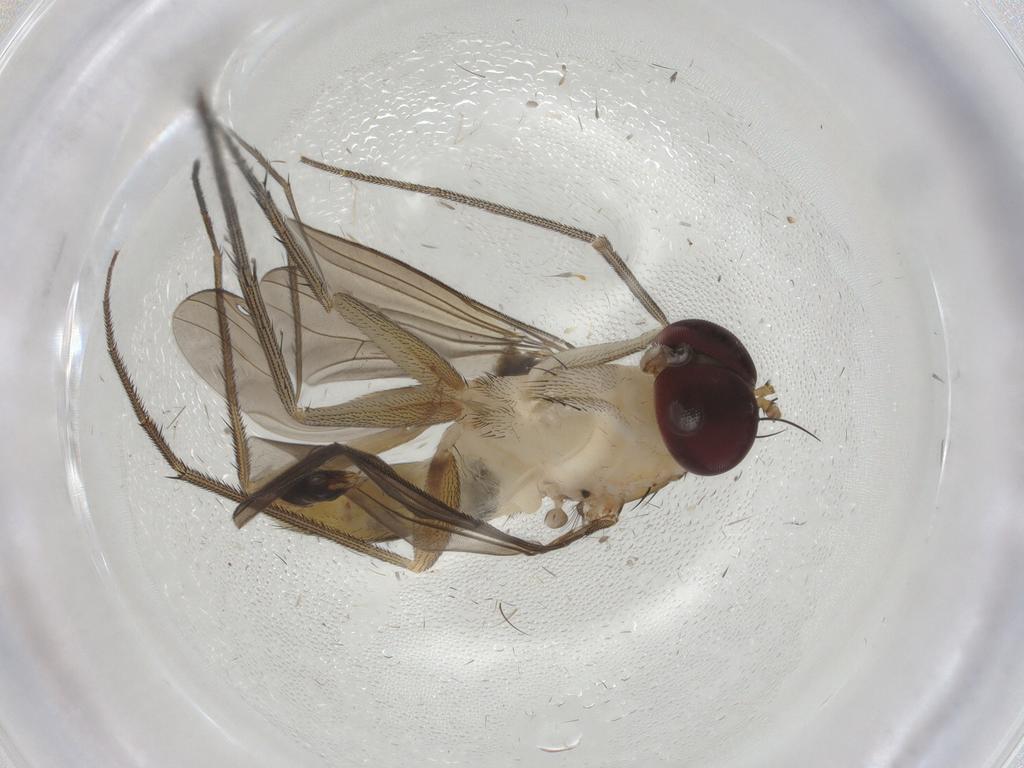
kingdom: Animalia
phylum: Arthropoda
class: Insecta
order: Diptera
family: Dolichopodidae
